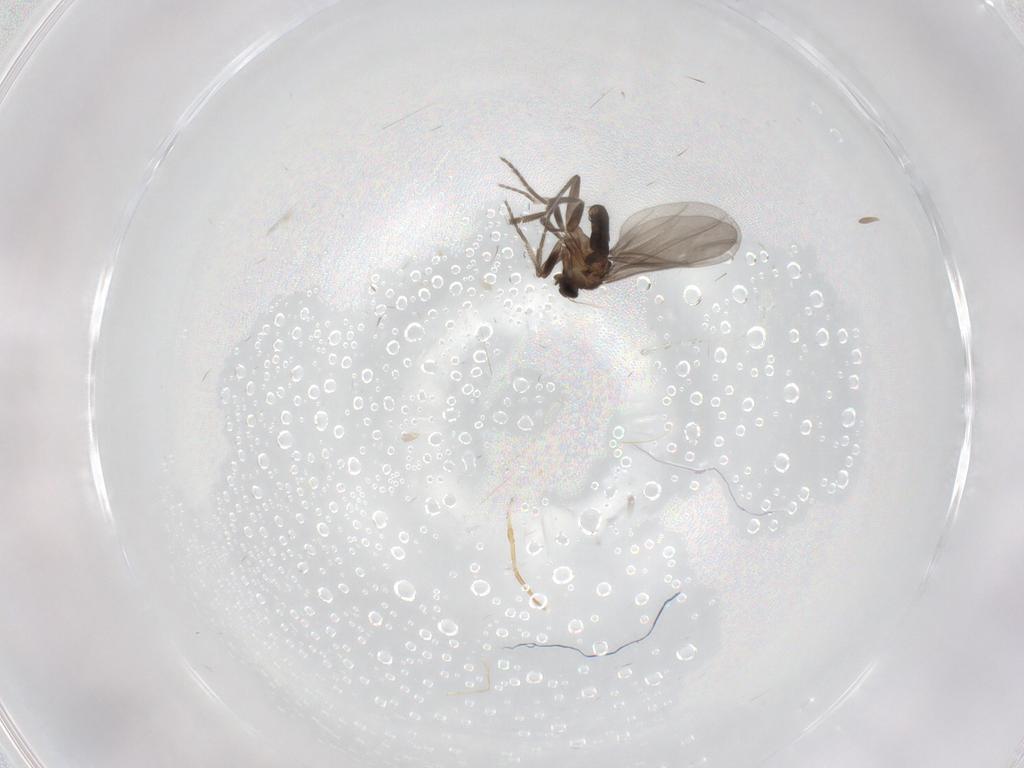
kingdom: Animalia
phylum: Arthropoda
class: Insecta
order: Diptera
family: Phoridae
